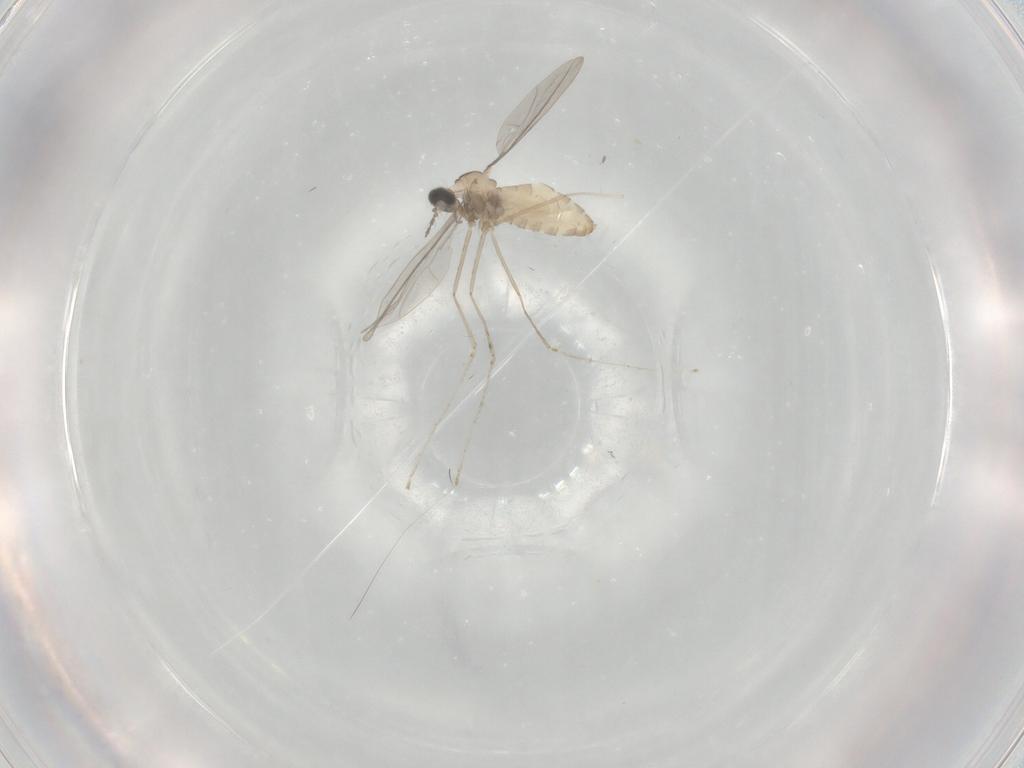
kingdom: Animalia
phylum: Arthropoda
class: Insecta
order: Diptera
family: Cecidomyiidae
